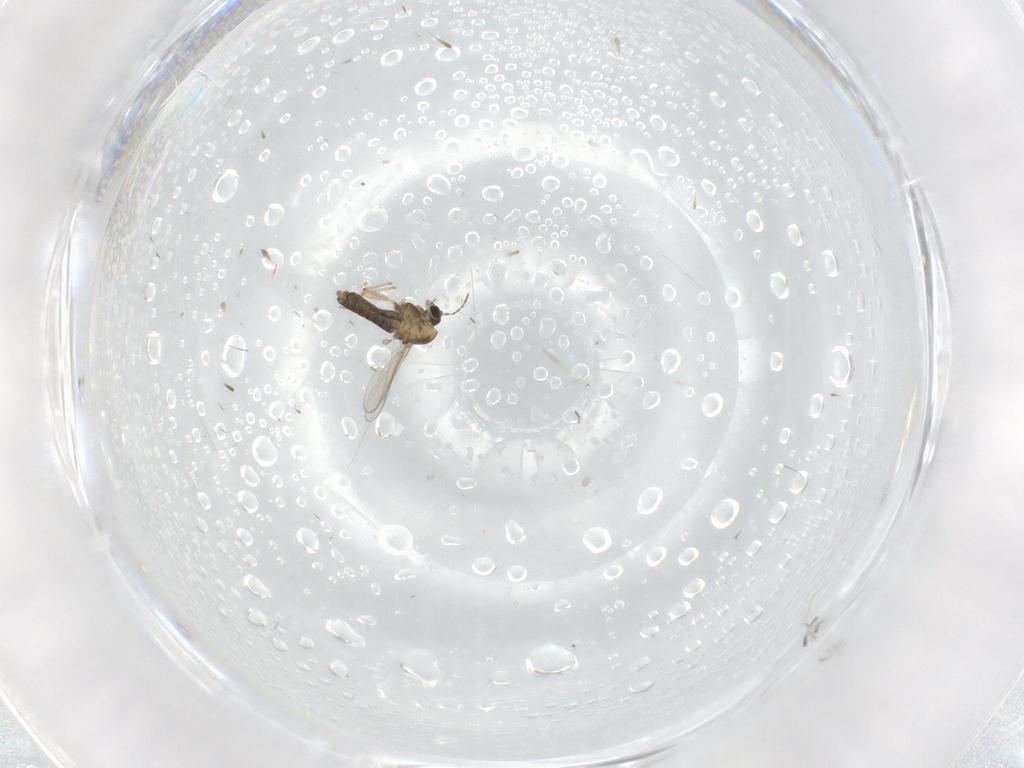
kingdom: Animalia
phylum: Arthropoda
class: Insecta
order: Diptera
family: Chironomidae
